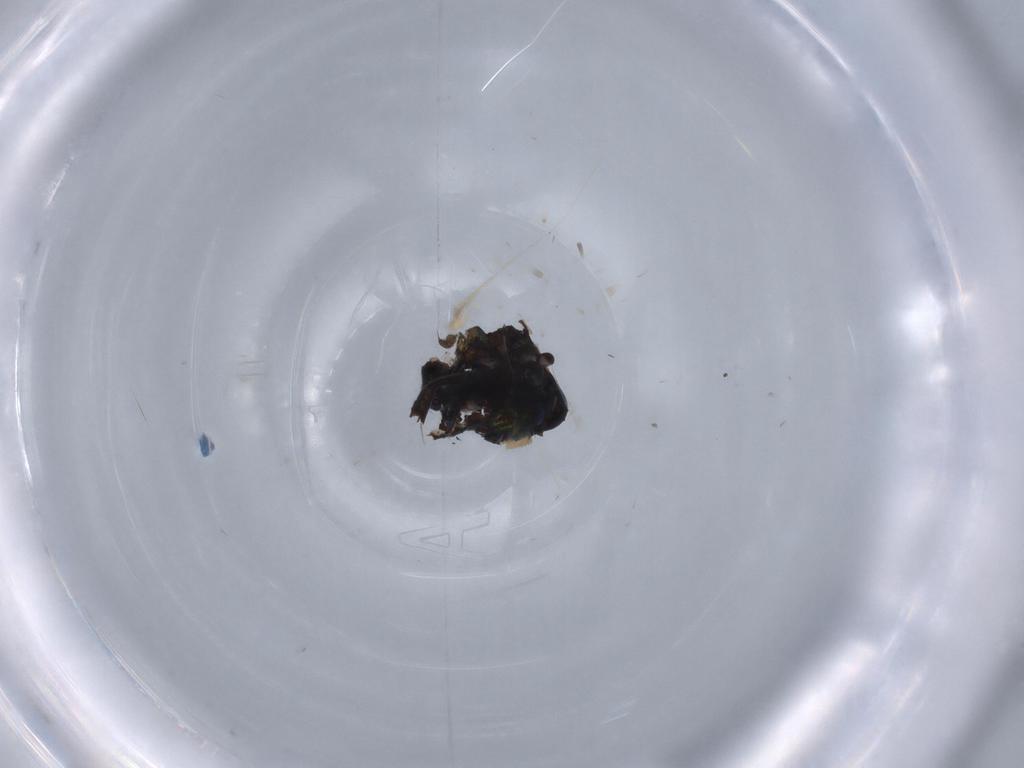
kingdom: Animalia
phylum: Arthropoda
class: Insecta
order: Diptera
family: Agromyzidae
